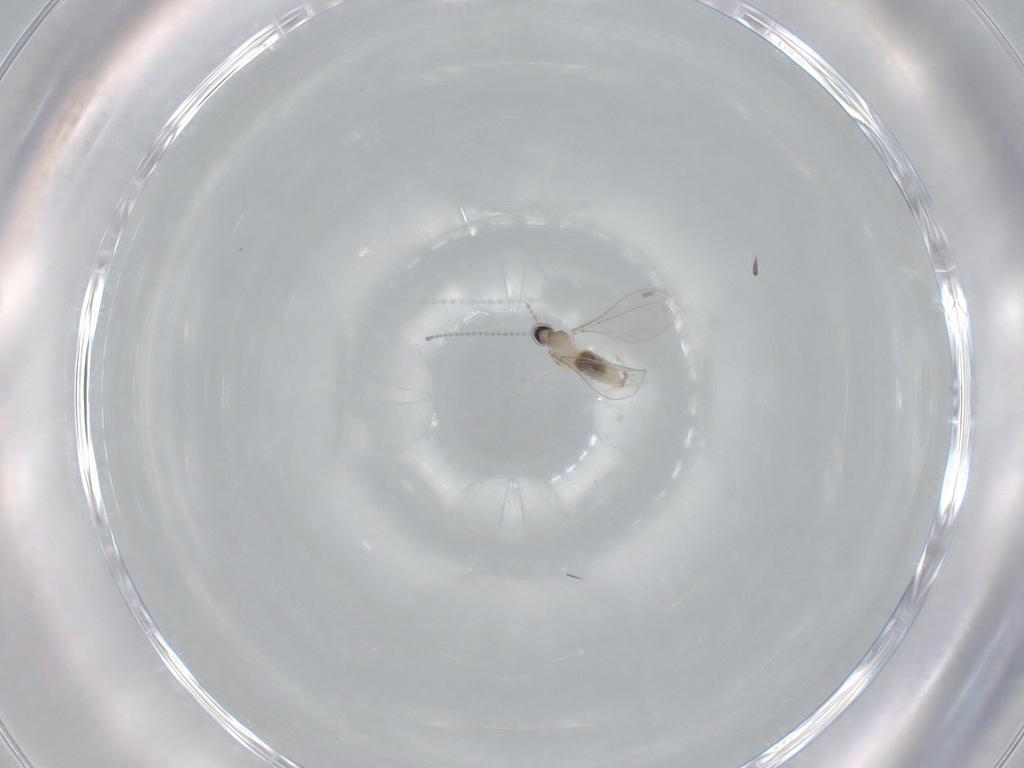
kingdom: Animalia
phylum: Arthropoda
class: Insecta
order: Diptera
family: Cecidomyiidae
